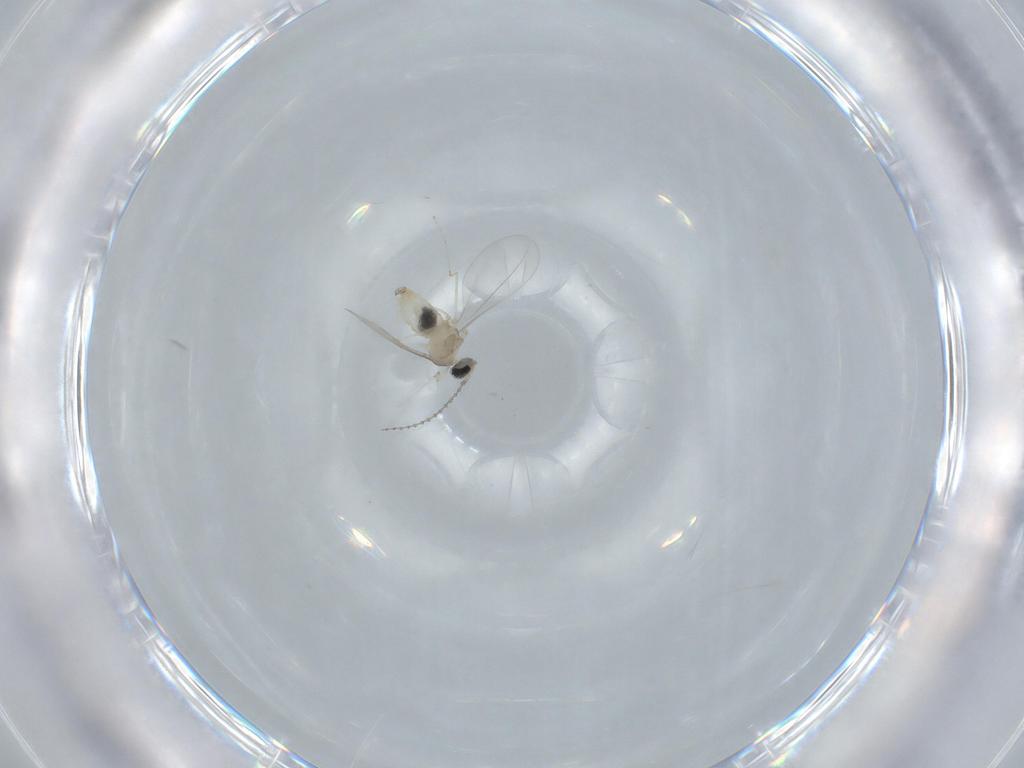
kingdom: Animalia
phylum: Arthropoda
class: Insecta
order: Diptera
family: Cecidomyiidae
